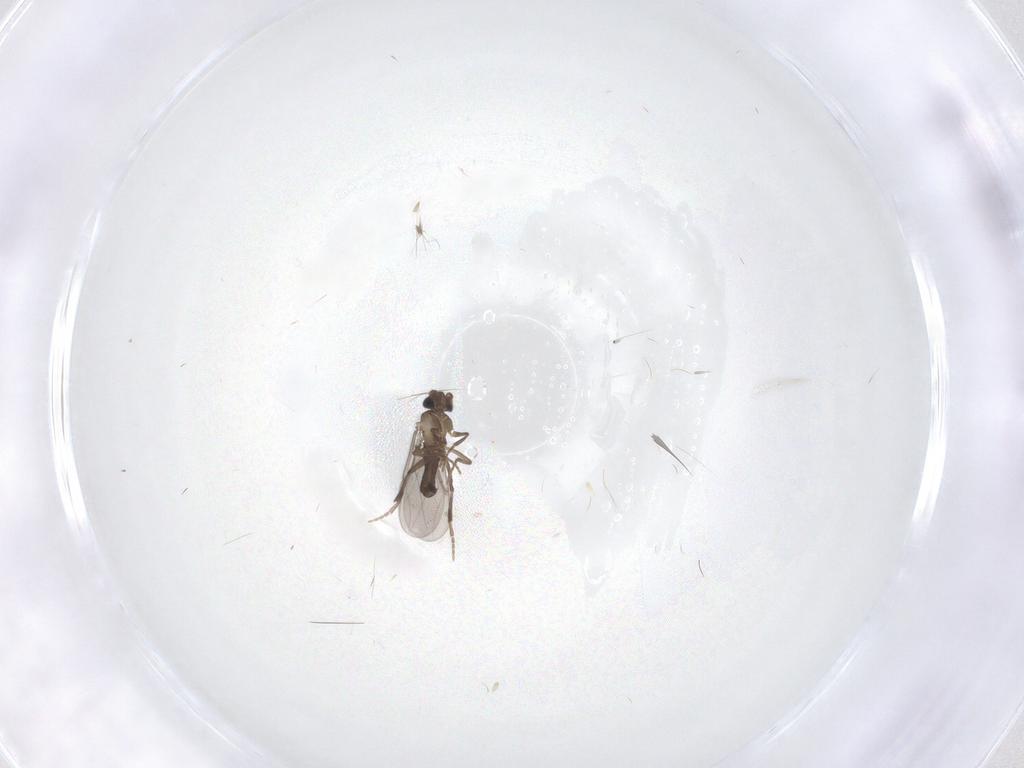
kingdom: Animalia
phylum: Arthropoda
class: Insecta
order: Diptera
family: Phoridae
